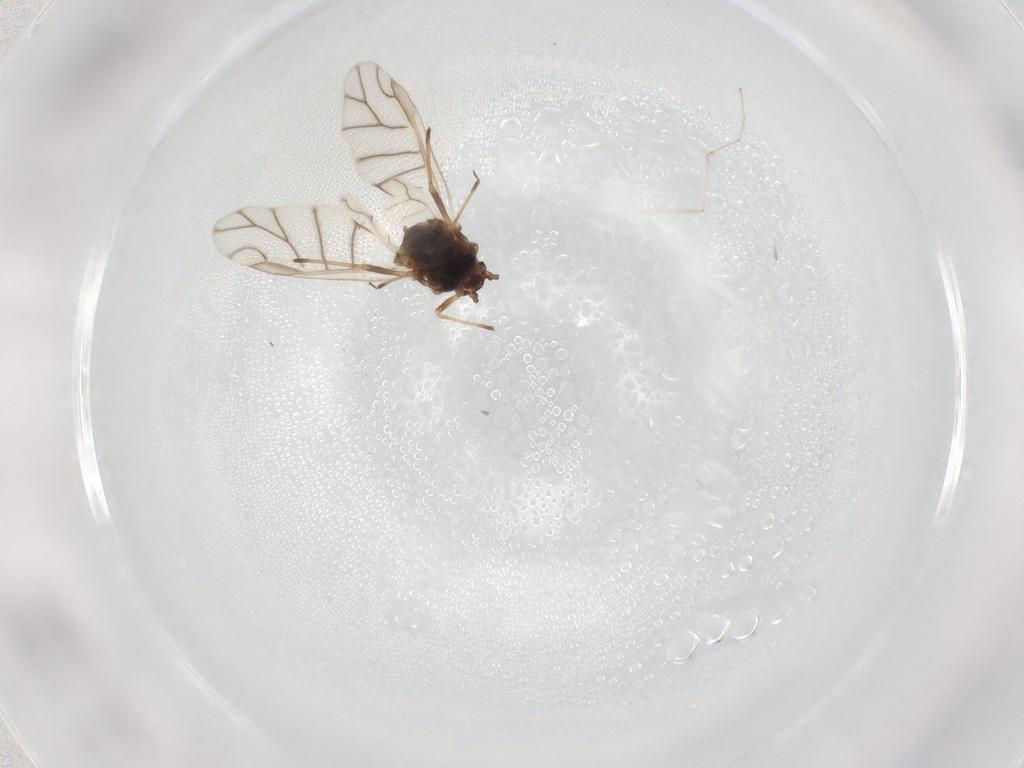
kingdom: Animalia
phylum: Arthropoda
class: Insecta
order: Hemiptera
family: Aphididae
